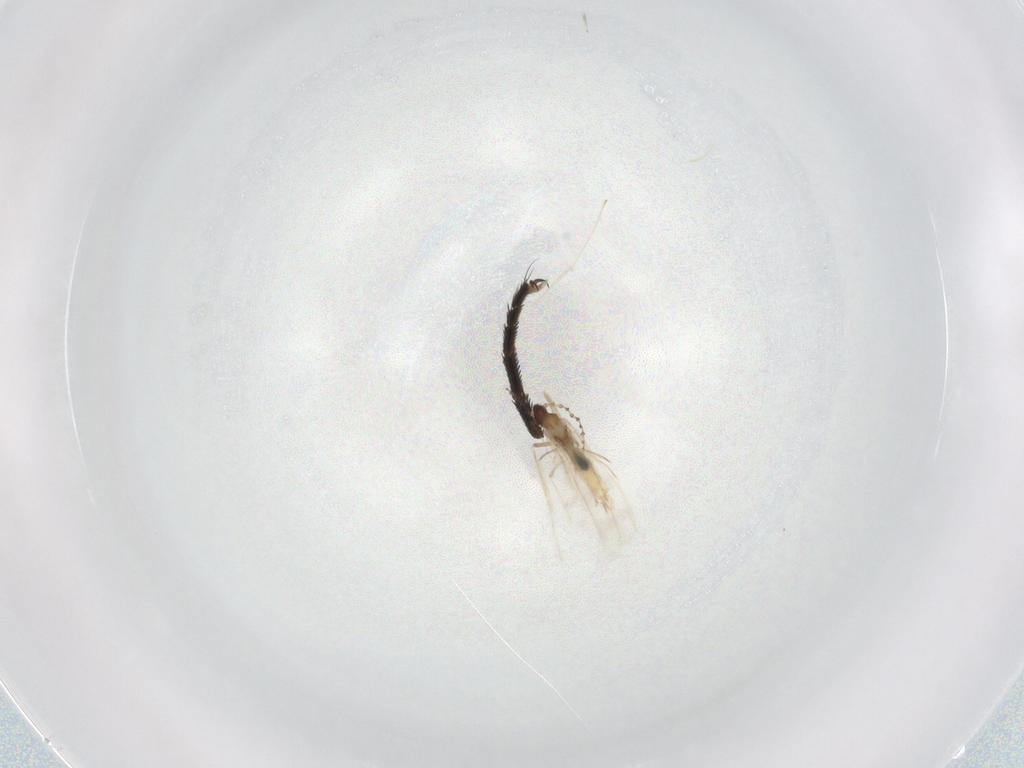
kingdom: Animalia
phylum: Arthropoda
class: Insecta
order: Diptera
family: Cecidomyiidae
